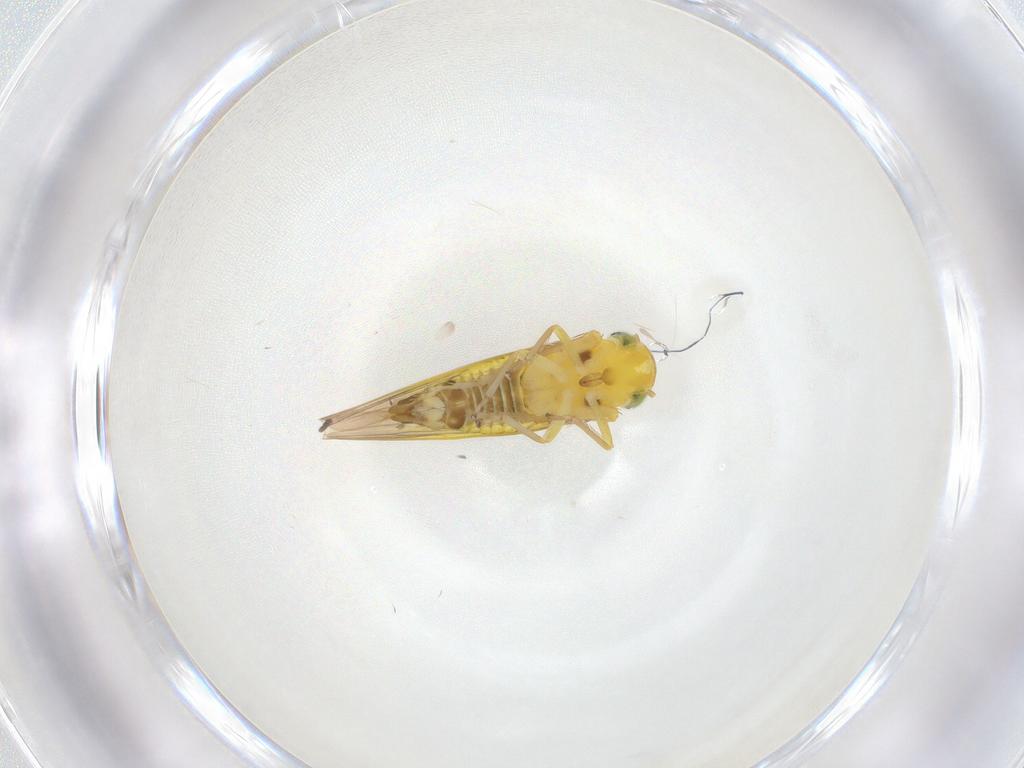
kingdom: Animalia
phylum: Arthropoda
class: Insecta
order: Hemiptera
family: Cicadellidae
